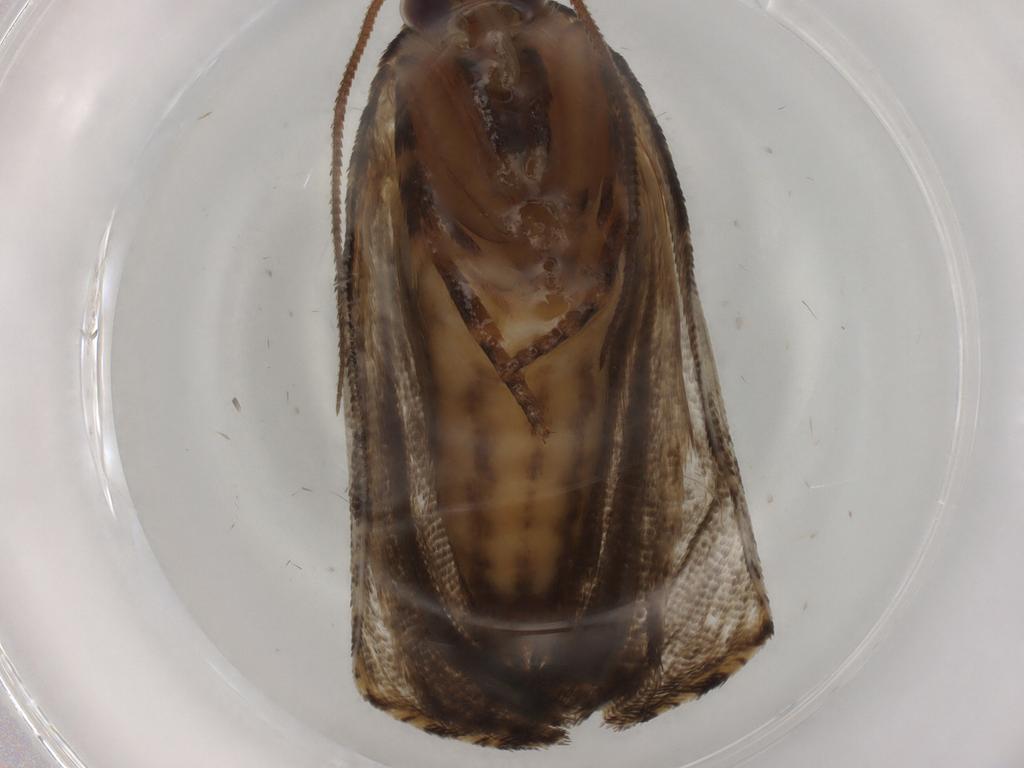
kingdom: Animalia
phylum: Arthropoda
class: Insecta
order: Lepidoptera
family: Tortricidae
